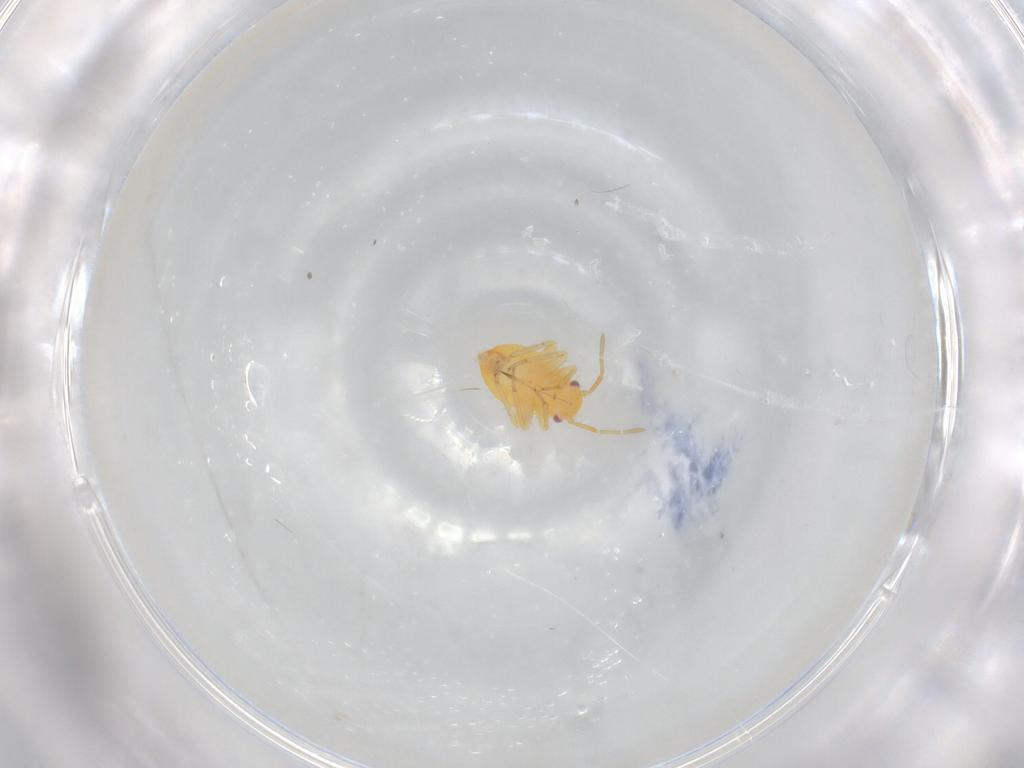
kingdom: Animalia
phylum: Arthropoda
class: Insecta
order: Hemiptera
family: Miridae
